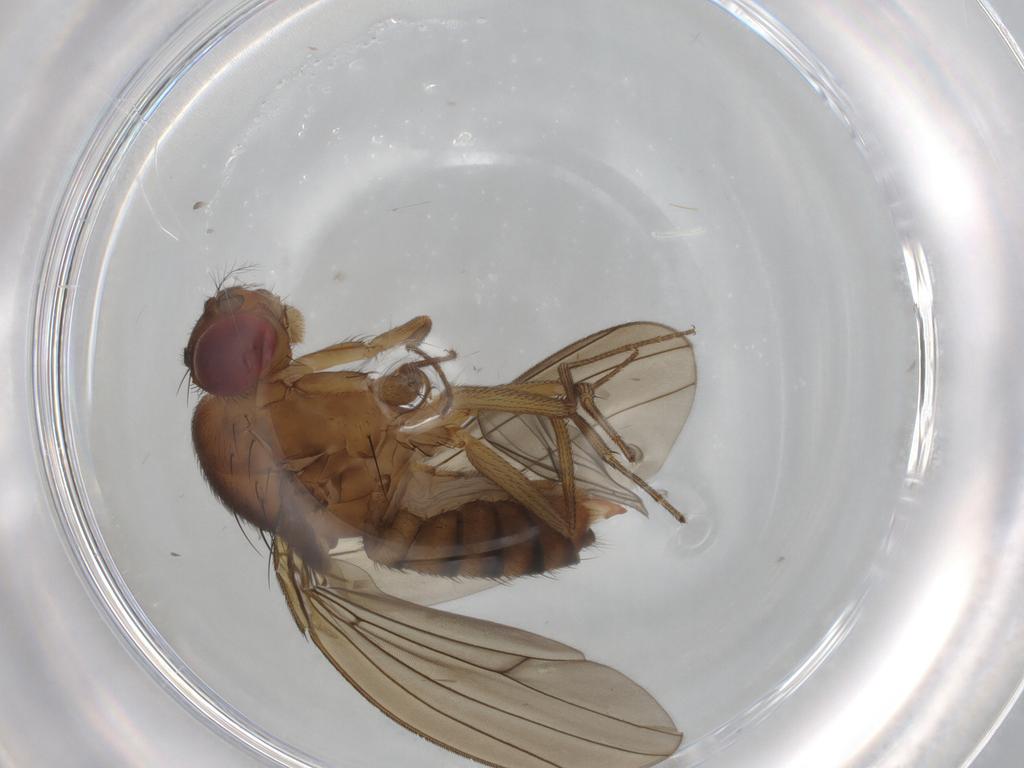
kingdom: Animalia
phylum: Arthropoda
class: Insecta
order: Diptera
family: Drosophilidae
